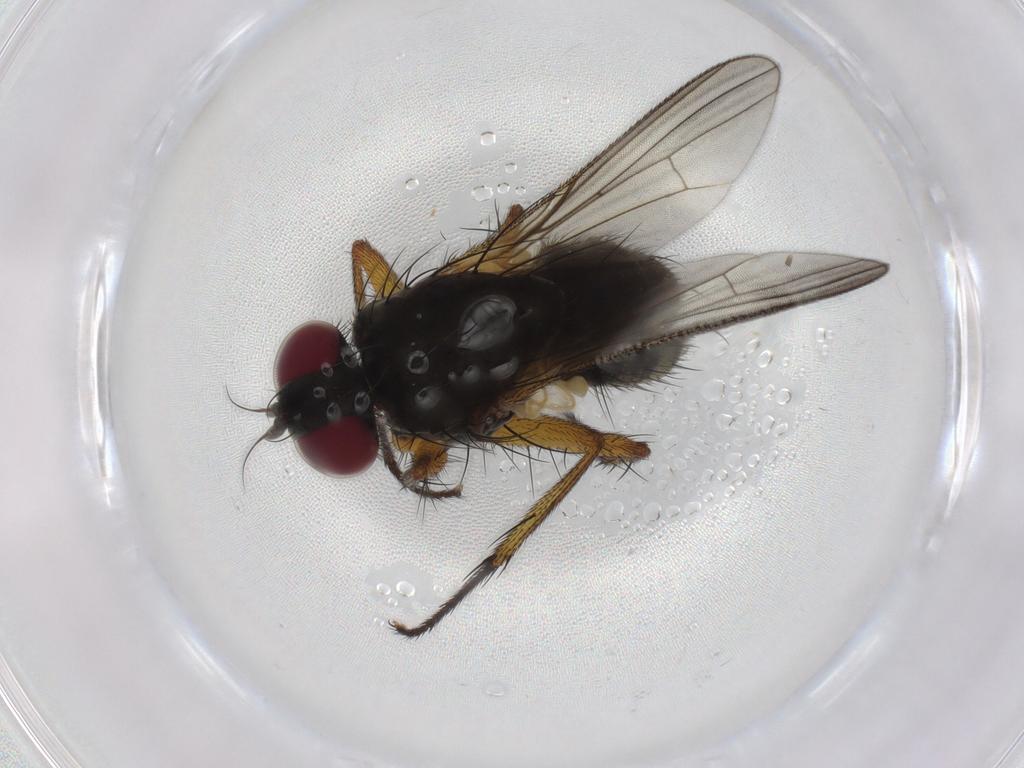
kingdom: Animalia
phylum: Arthropoda
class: Insecta
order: Diptera
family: Muscidae
